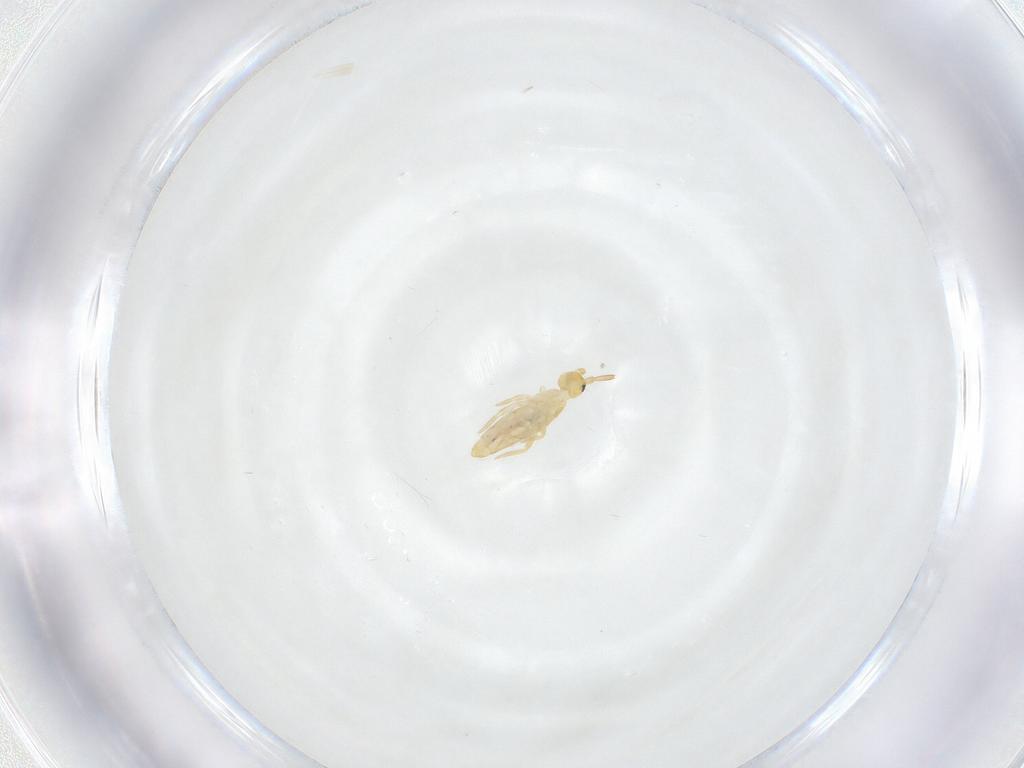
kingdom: Animalia
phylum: Arthropoda
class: Collembola
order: Entomobryomorpha
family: Entomobryidae
